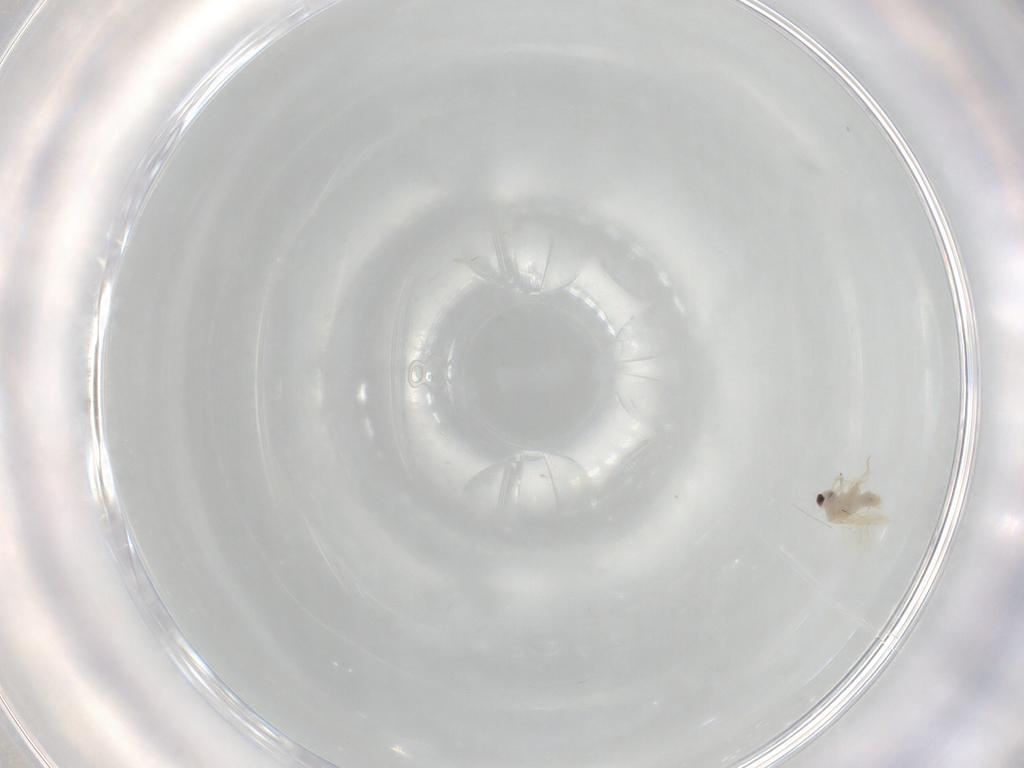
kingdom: Animalia
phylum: Arthropoda
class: Insecta
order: Hemiptera
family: Aleyrodidae
